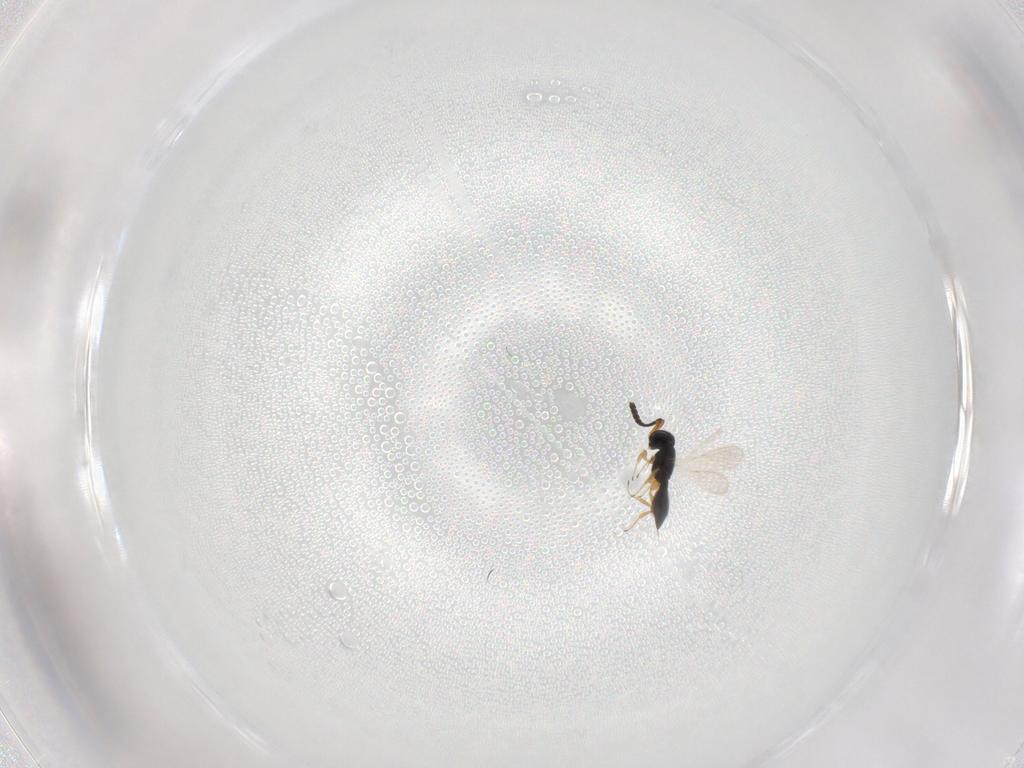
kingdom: Animalia
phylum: Arthropoda
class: Insecta
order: Hymenoptera
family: Scelionidae
